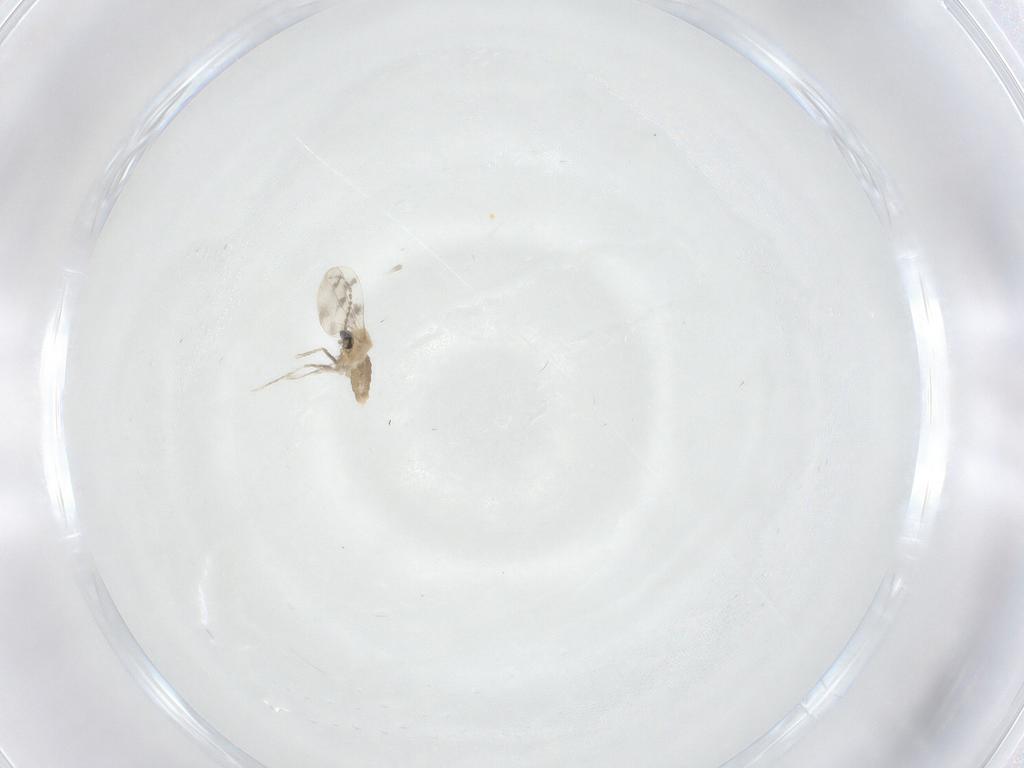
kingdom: Animalia
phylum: Arthropoda
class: Insecta
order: Diptera
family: Cecidomyiidae
